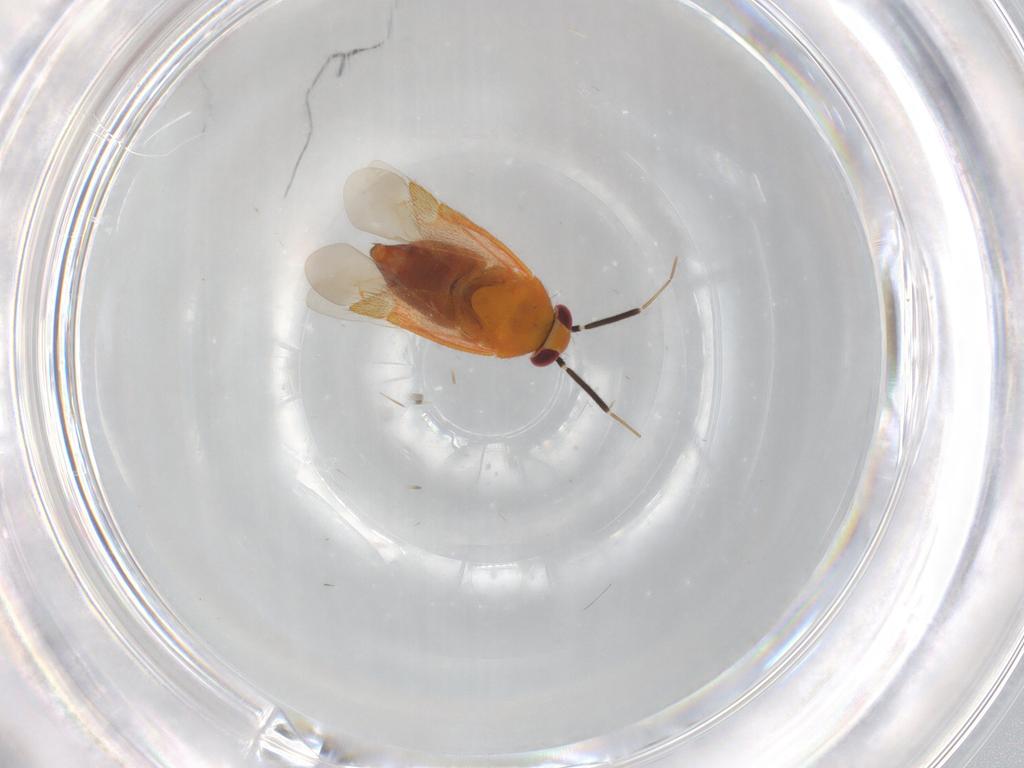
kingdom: Animalia
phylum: Arthropoda
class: Insecta
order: Hemiptera
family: Miridae
